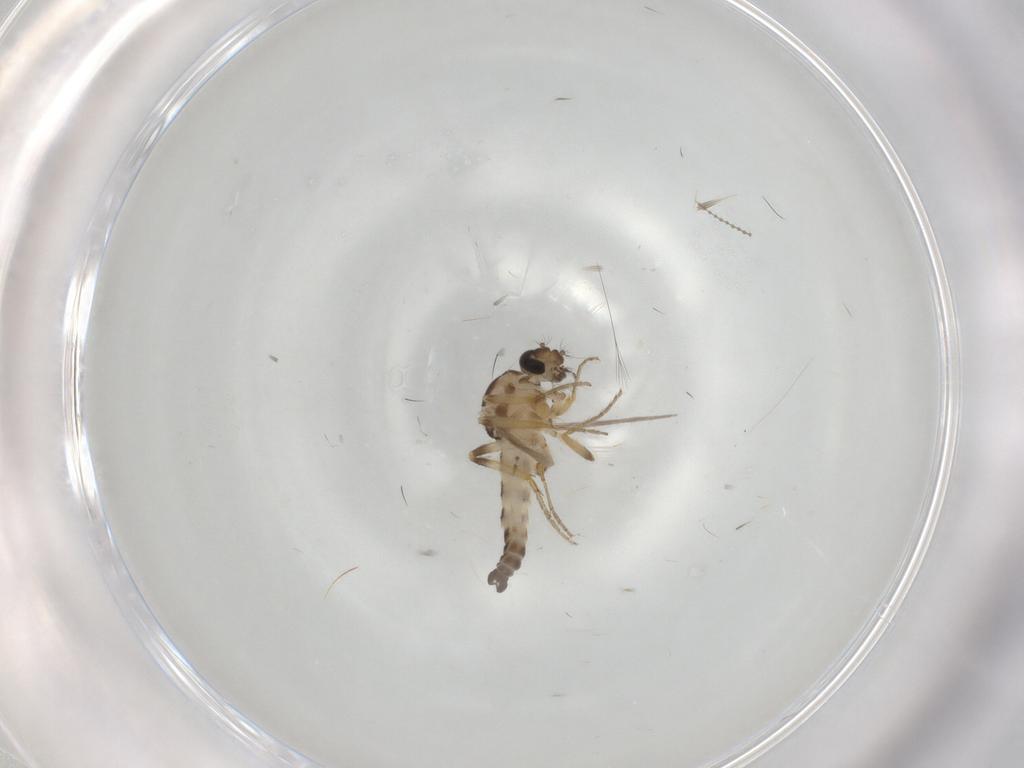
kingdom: Animalia
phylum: Arthropoda
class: Insecta
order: Diptera
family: Ceratopogonidae
